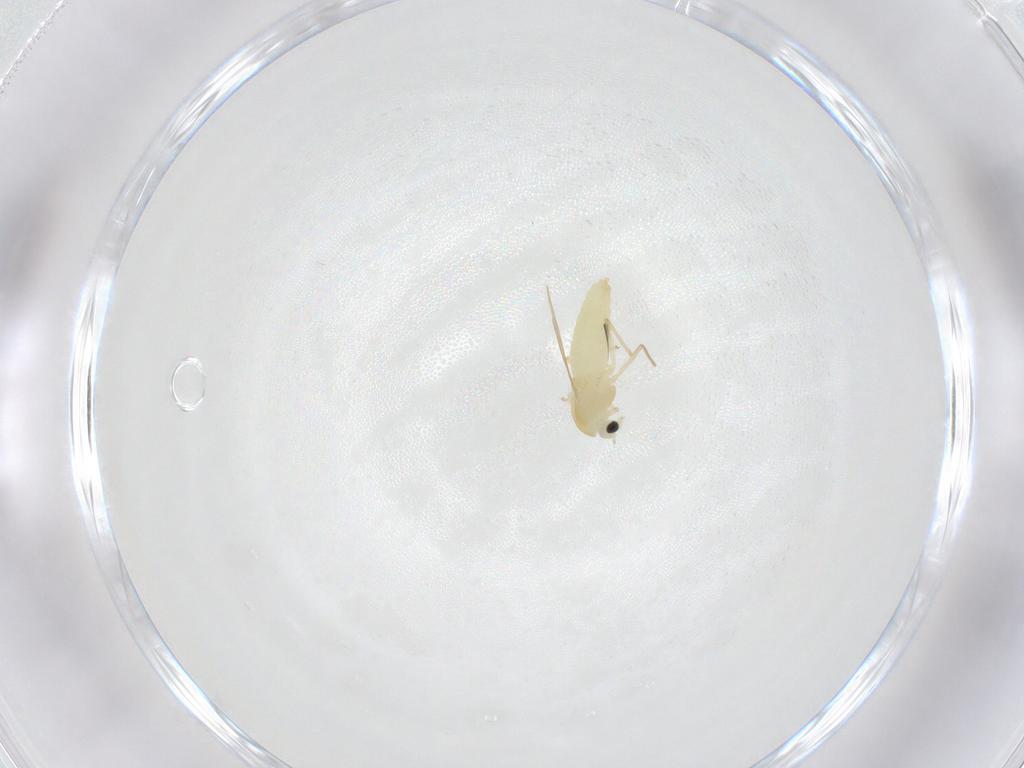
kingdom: Animalia
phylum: Arthropoda
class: Insecta
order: Diptera
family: Chironomidae
